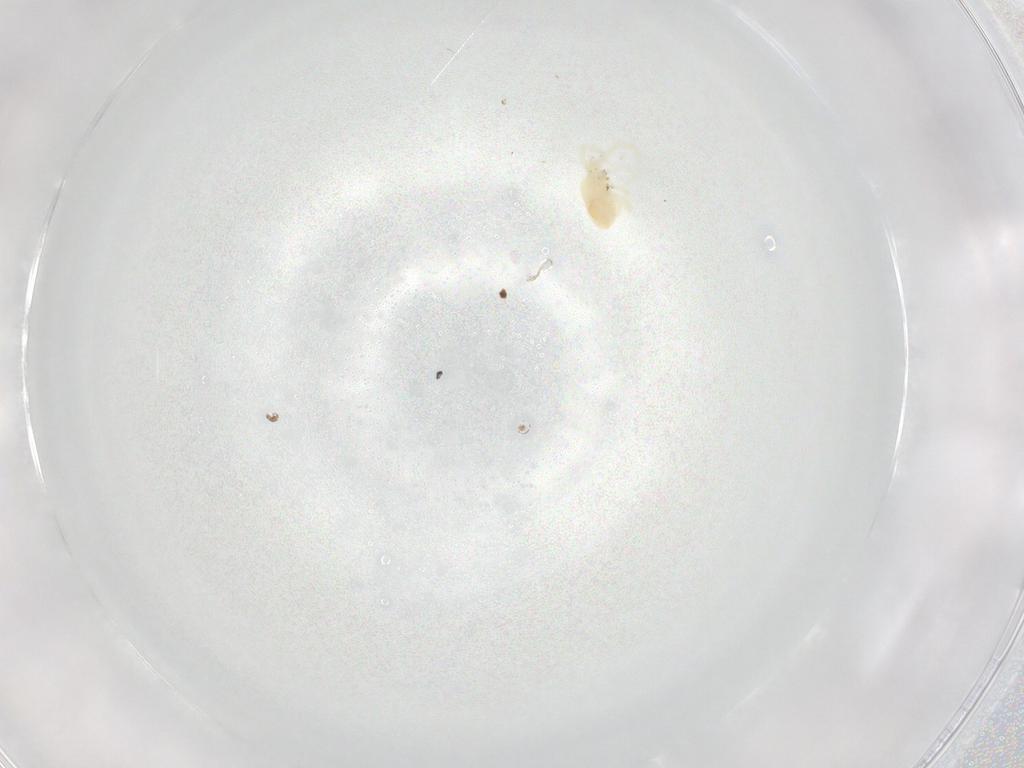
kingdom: Animalia
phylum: Arthropoda
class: Arachnida
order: Trombidiformes
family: Rhagidiidae
